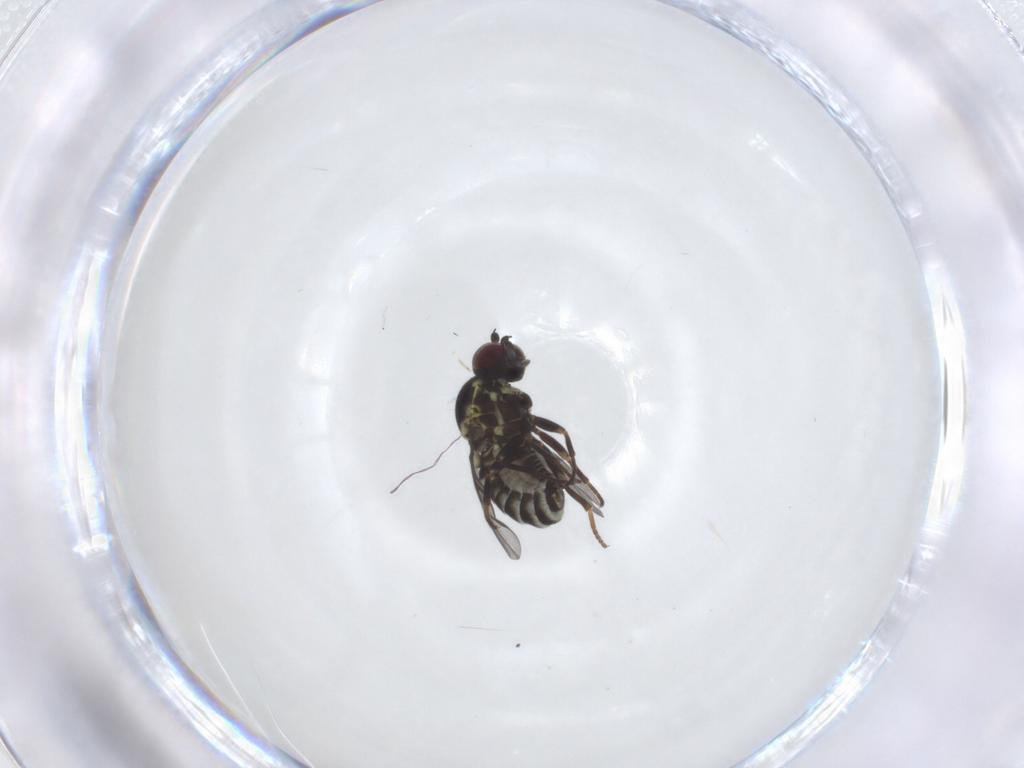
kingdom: Animalia
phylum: Arthropoda
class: Insecta
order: Diptera
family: Bombyliidae
